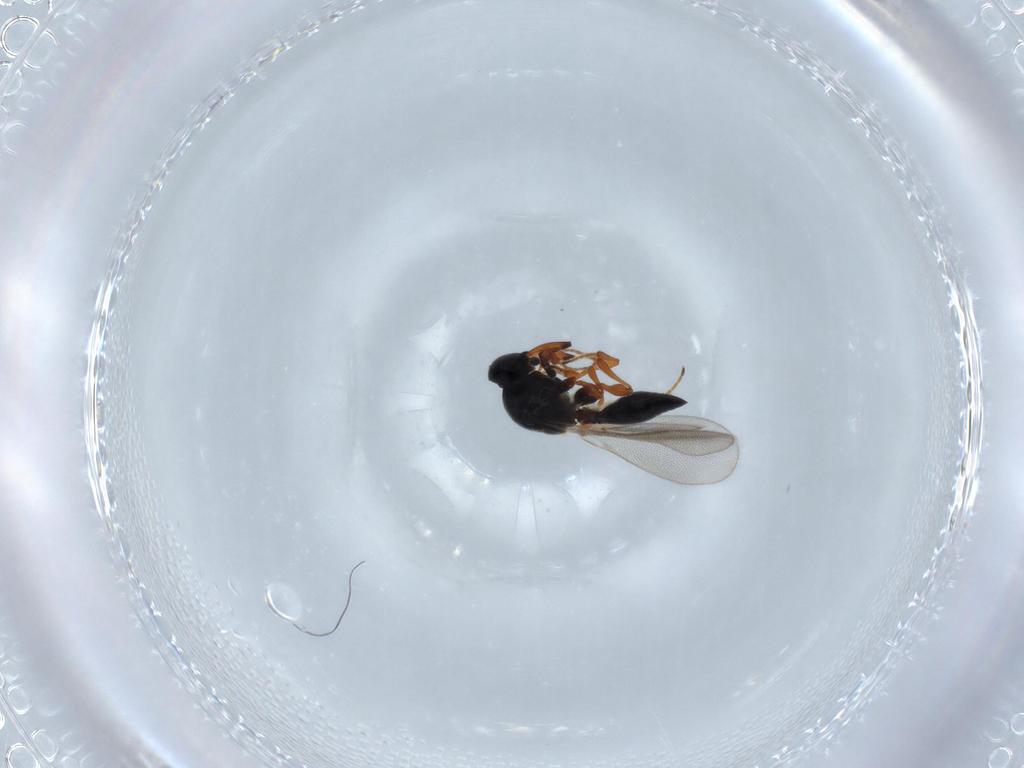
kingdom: Animalia
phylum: Arthropoda
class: Insecta
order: Hymenoptera
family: Platygastridae
